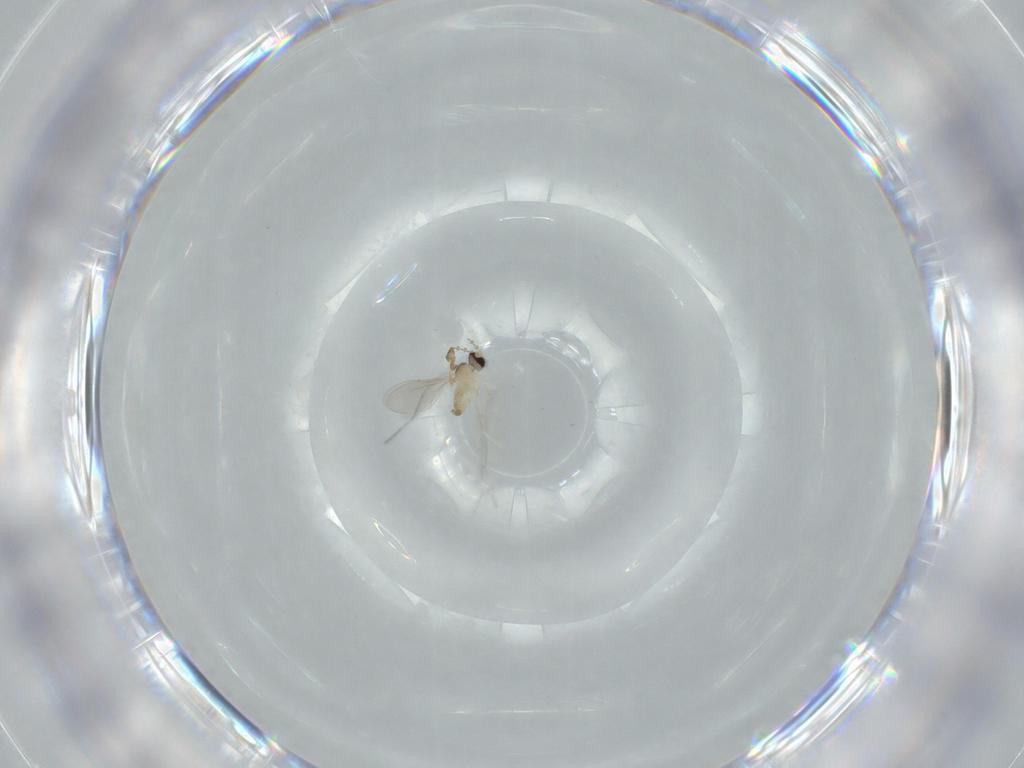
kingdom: Animalia
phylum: Arthropoda
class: Insecta
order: Diptera
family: Cecidomyiidae
